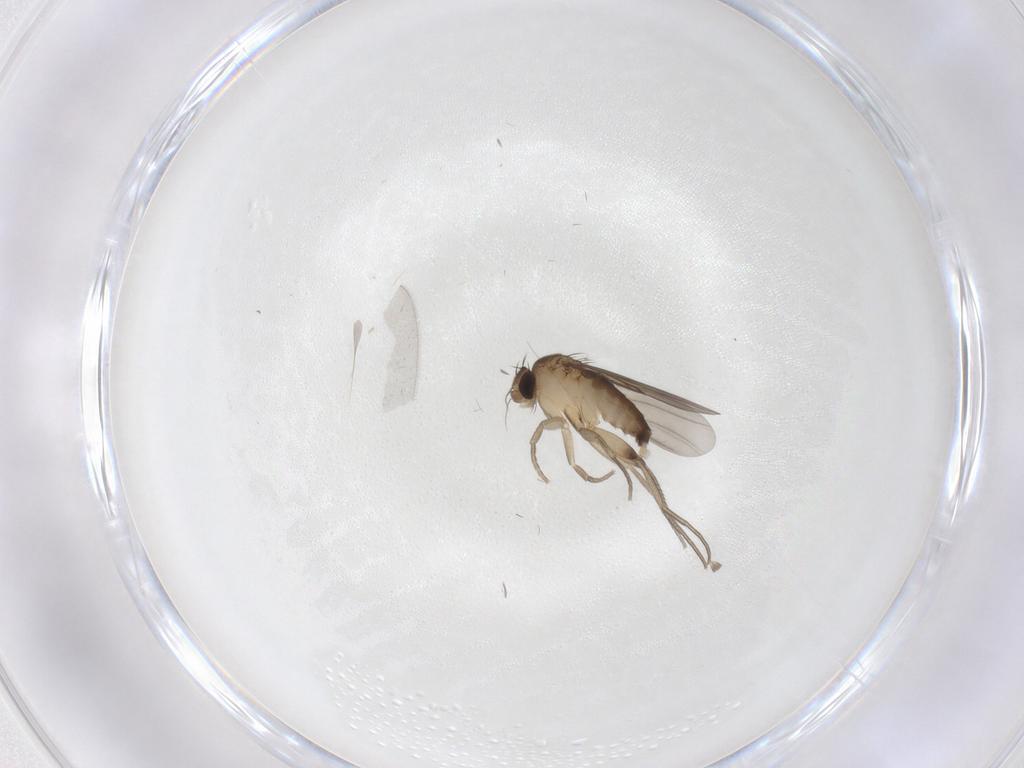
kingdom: Animalia
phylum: Arthropoda
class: Insecta
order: Diptera
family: Phoridae
